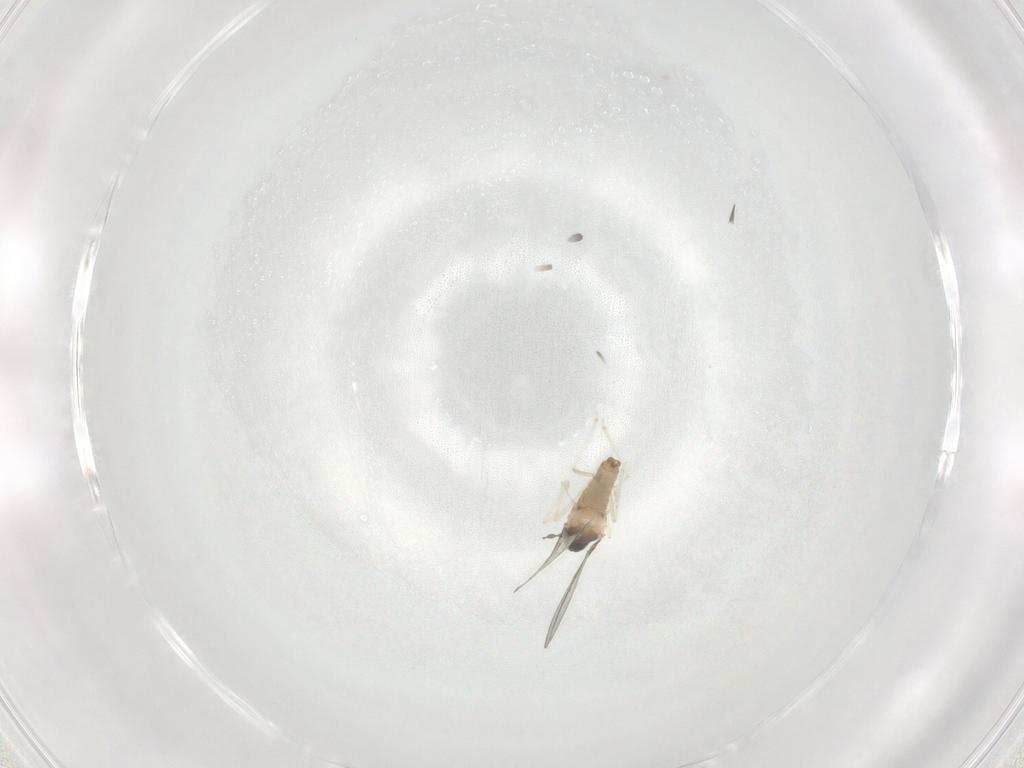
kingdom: Animalia
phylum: Arthropoda
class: Insecta
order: Diptera
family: Cecidomyiidae
